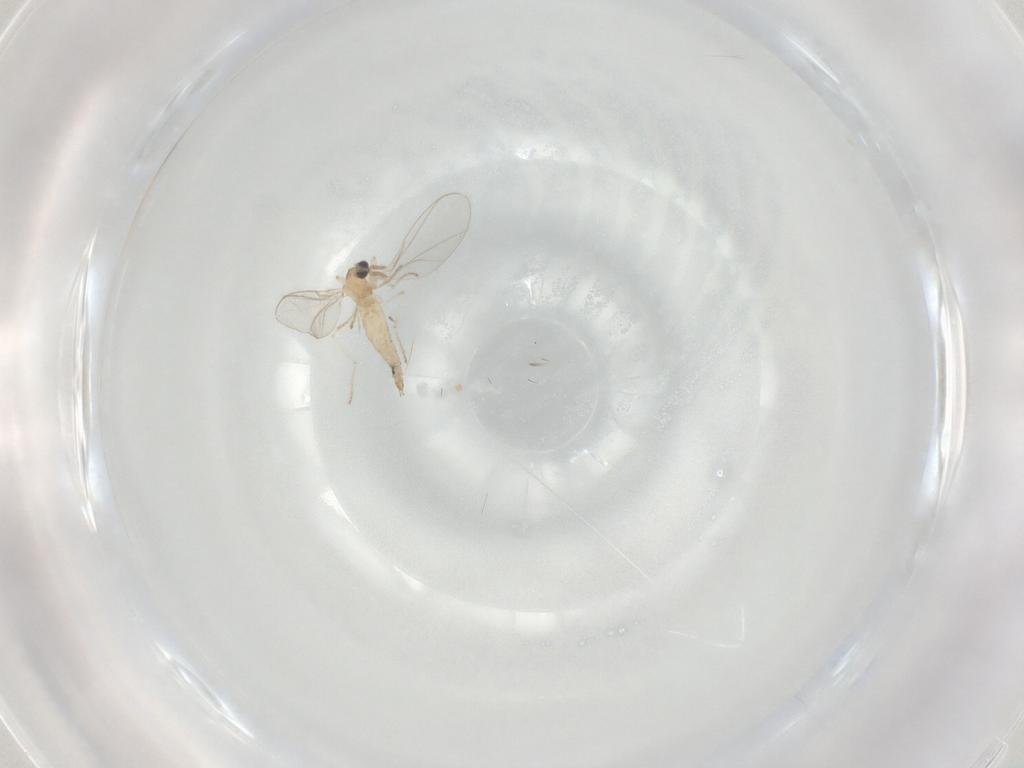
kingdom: Animalia
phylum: Arthropoda
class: Insecta
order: Diptera
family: Cecidomyiidae
